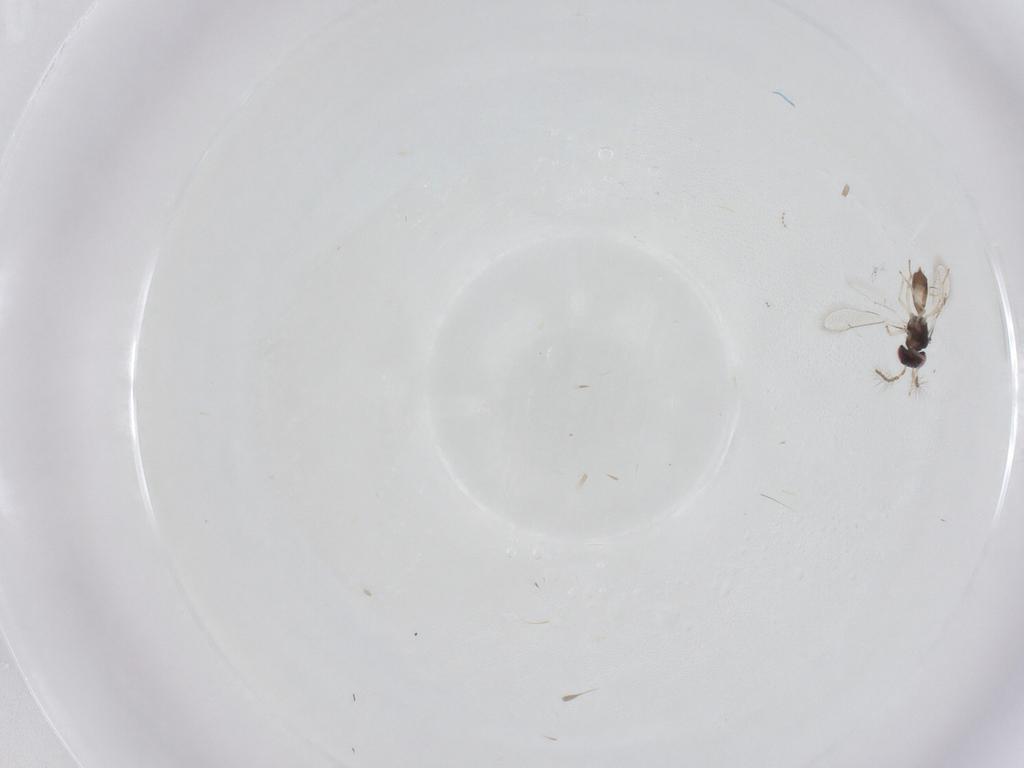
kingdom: Animalia
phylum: Arthropoda
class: Insecta
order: Hymenoptera
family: Eulophidae
